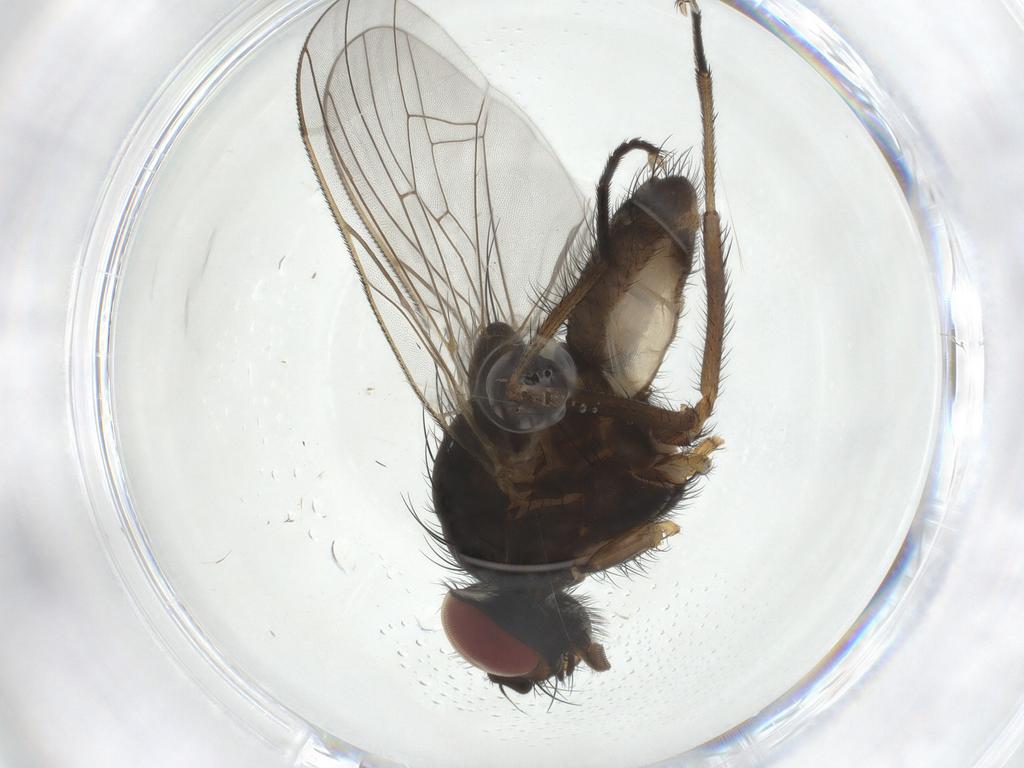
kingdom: Animalia
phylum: Arthropoda
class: Insecta
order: Diptera
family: Anthomyiidae
